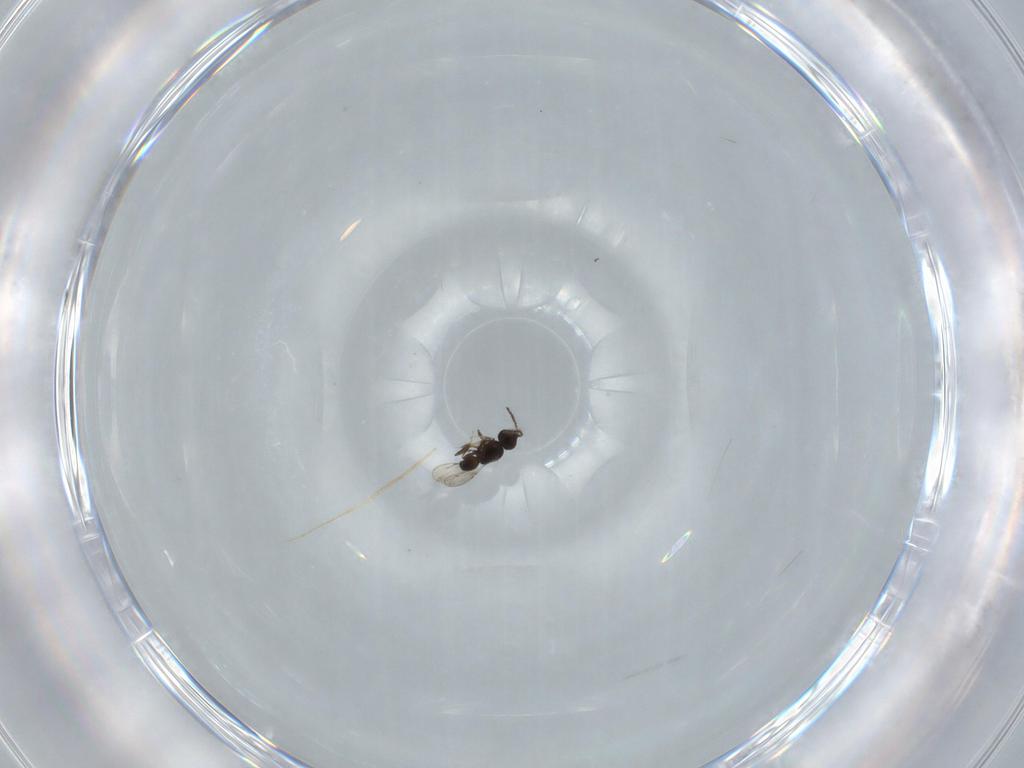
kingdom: Animalia
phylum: Arthropoda
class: Insecta
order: Hymenoptera
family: Ceraphronidae
